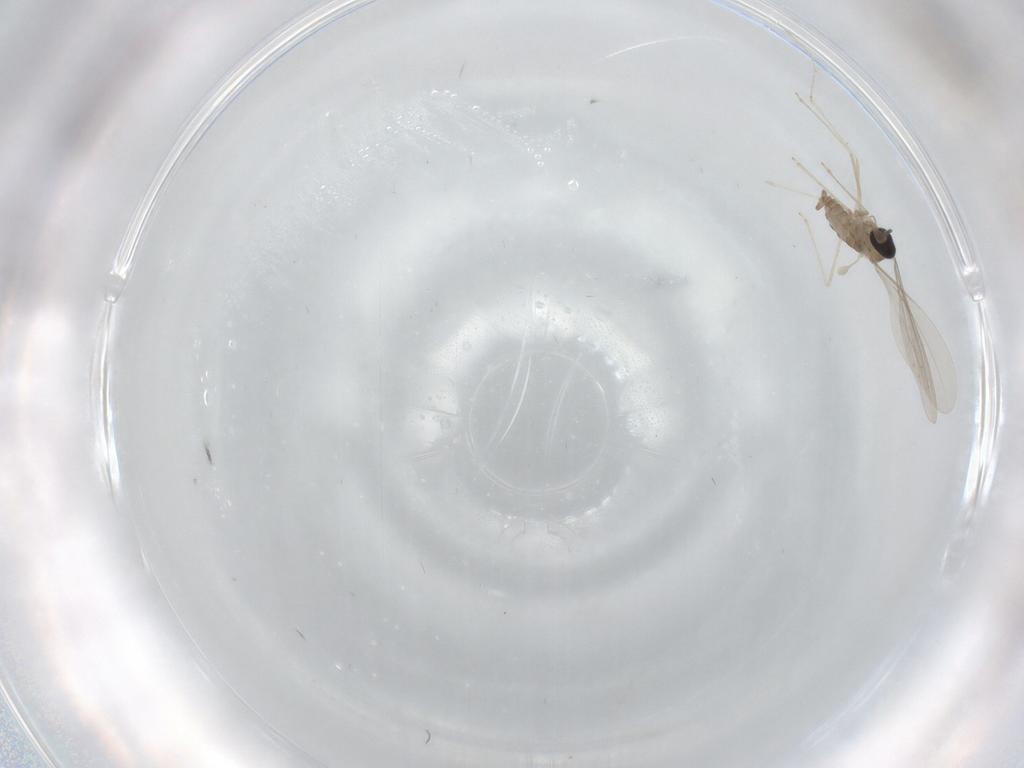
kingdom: Animalia
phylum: Arthropoda
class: Insecta
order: Diptera
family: Cecidomyiidae
